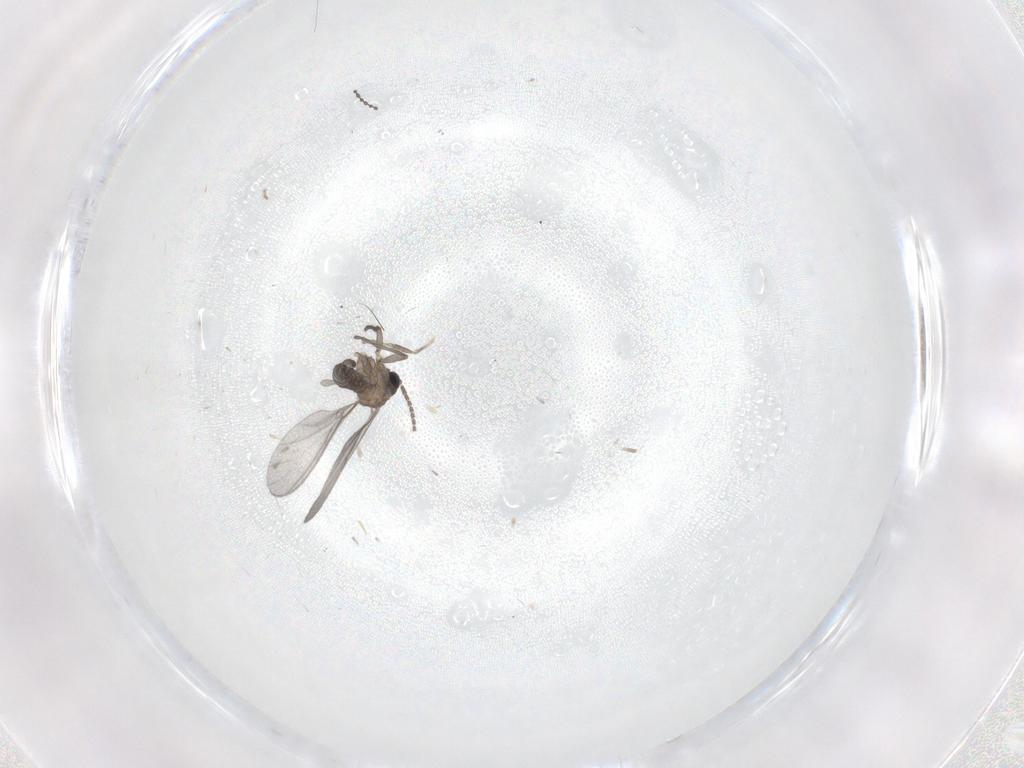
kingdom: Animalia
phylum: Arthropoda
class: Insecta
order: Diptera
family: Sciaridae
